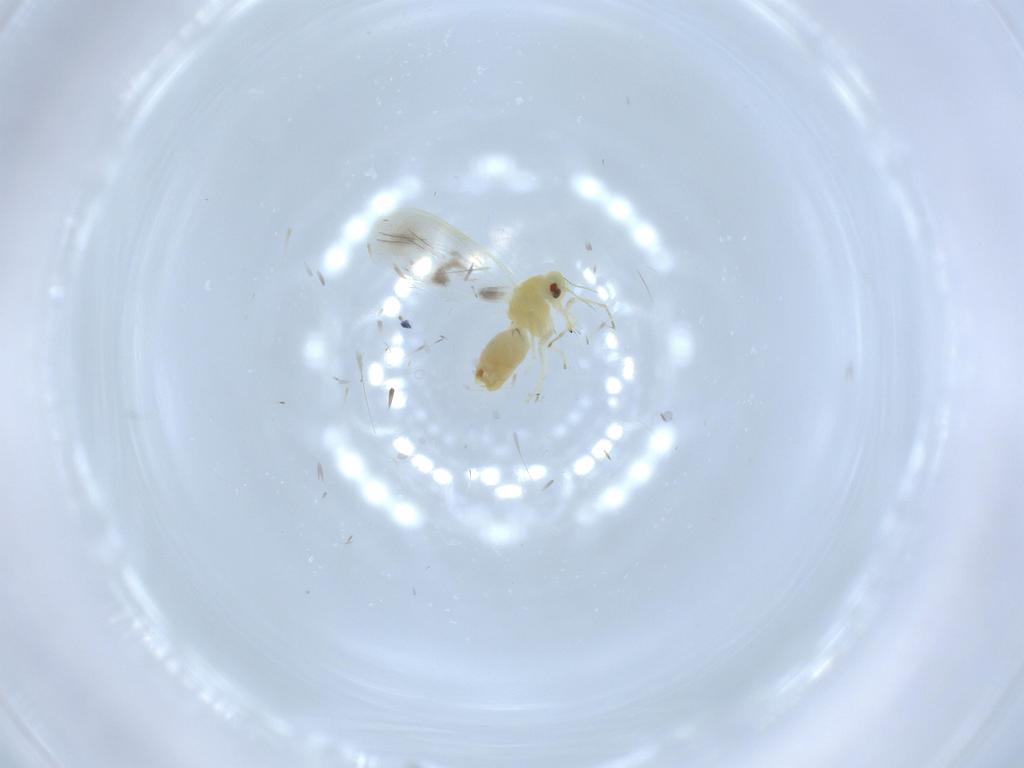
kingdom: Animalia
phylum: Arthropoda
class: Insecta
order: Hemiptera
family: Aleyrodidae
